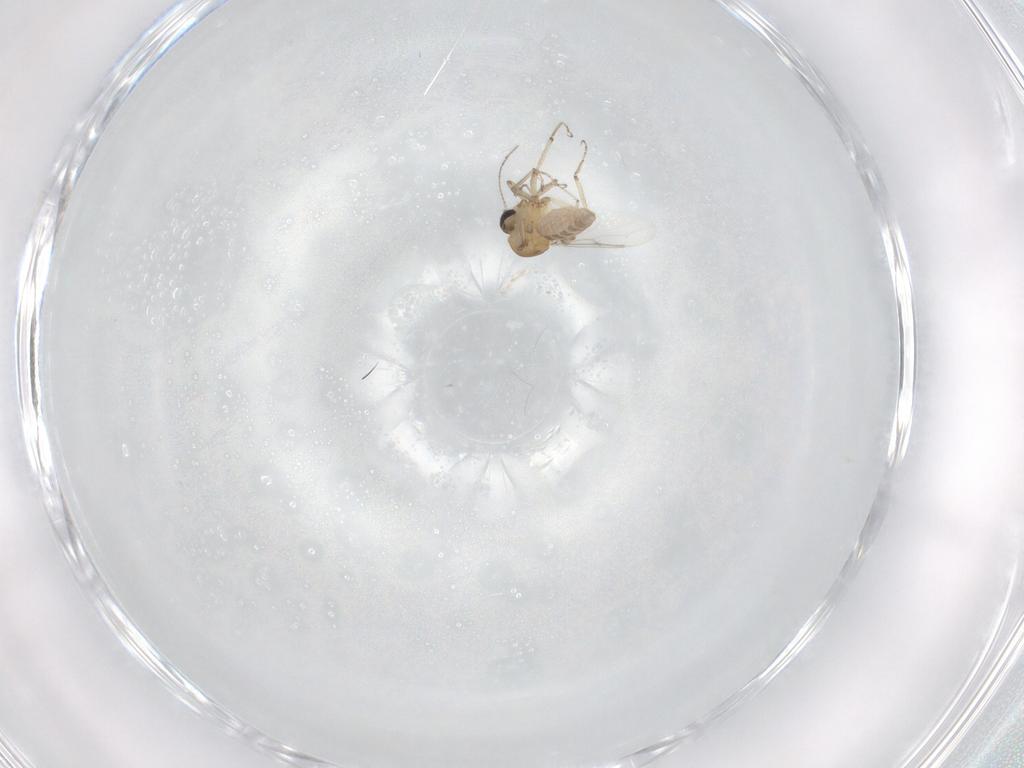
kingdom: Animalia
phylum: Arthropoda
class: Insecta
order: Diptera
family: Ceratopogonidae
